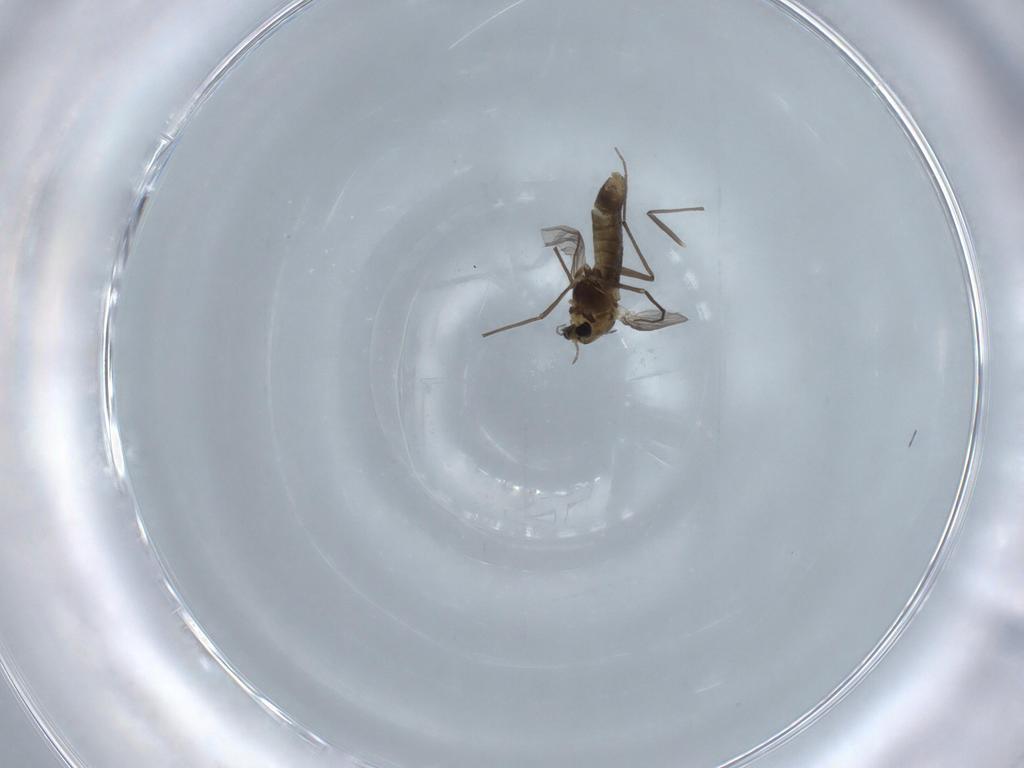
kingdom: Animalia
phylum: Arthropoda
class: Insecta
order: Diptera
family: Chironomidae
